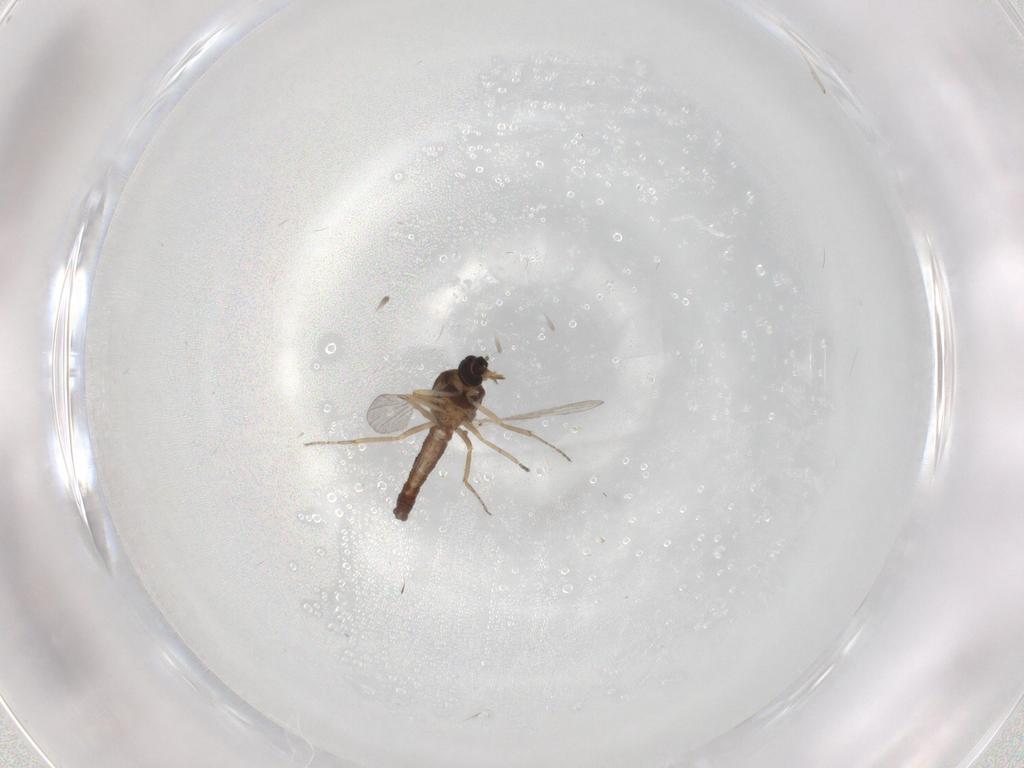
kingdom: Animalia
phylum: Arthropoda
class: Insecta
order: Diptera
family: Ceratopogonidae
